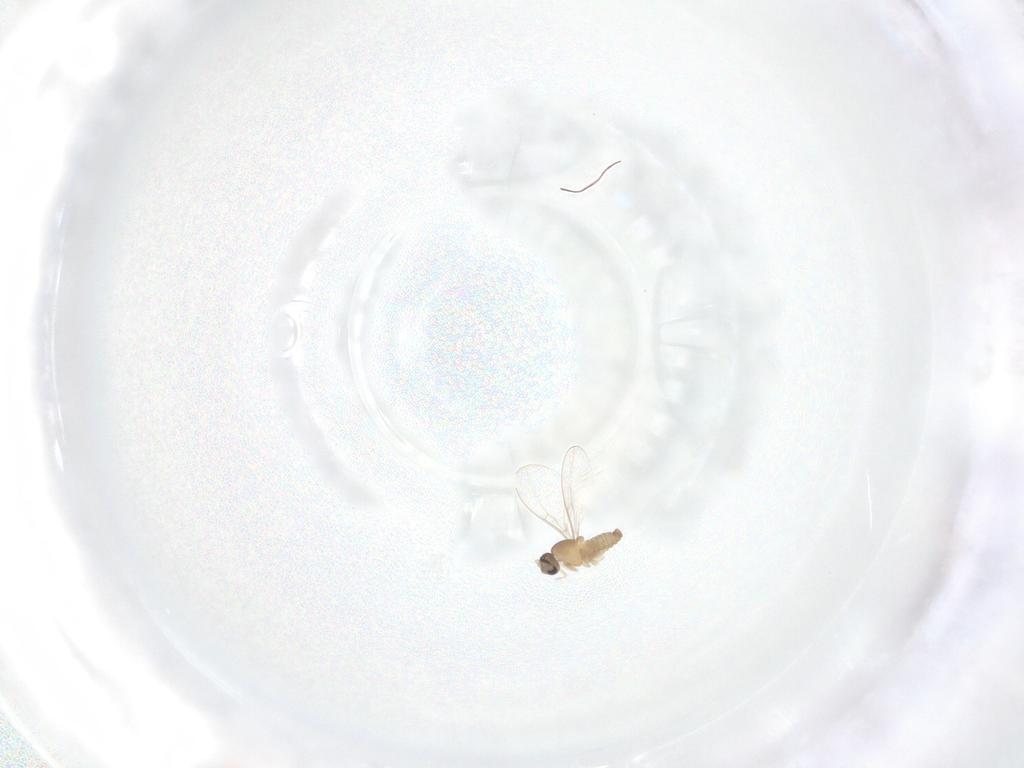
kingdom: Animalia
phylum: Arthropoda
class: Insecta
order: Diptera
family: Cecidomyiidae
